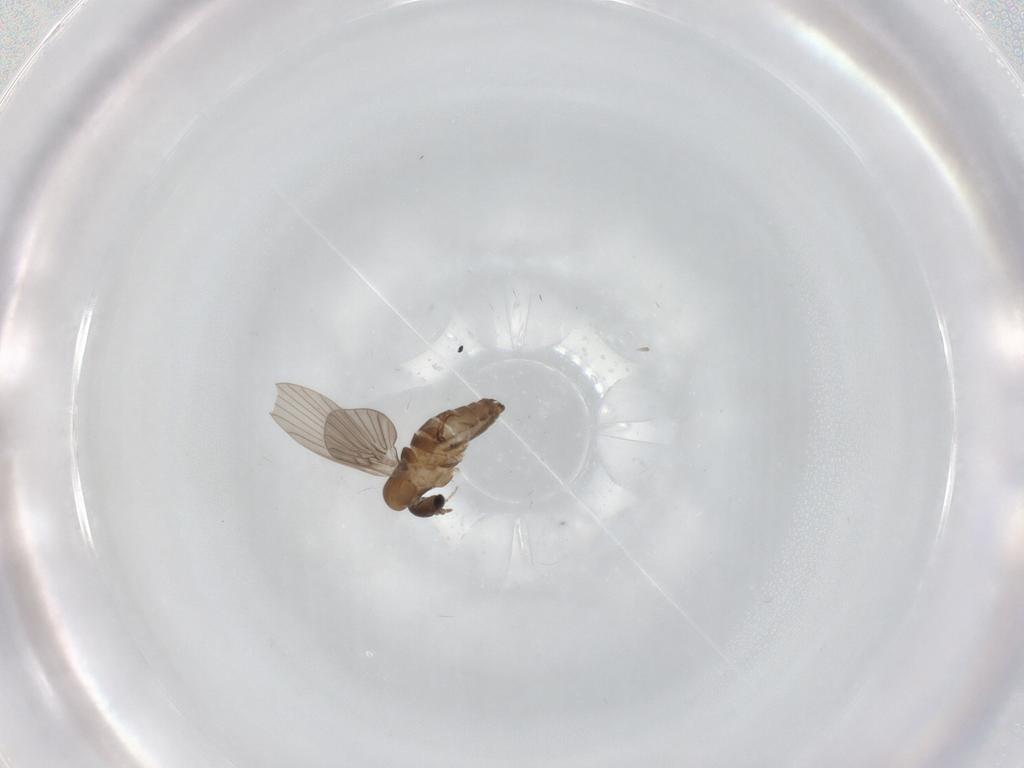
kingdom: Animalia
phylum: Arthropoda
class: Insecta
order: Diptera
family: Cecidomyiidae
